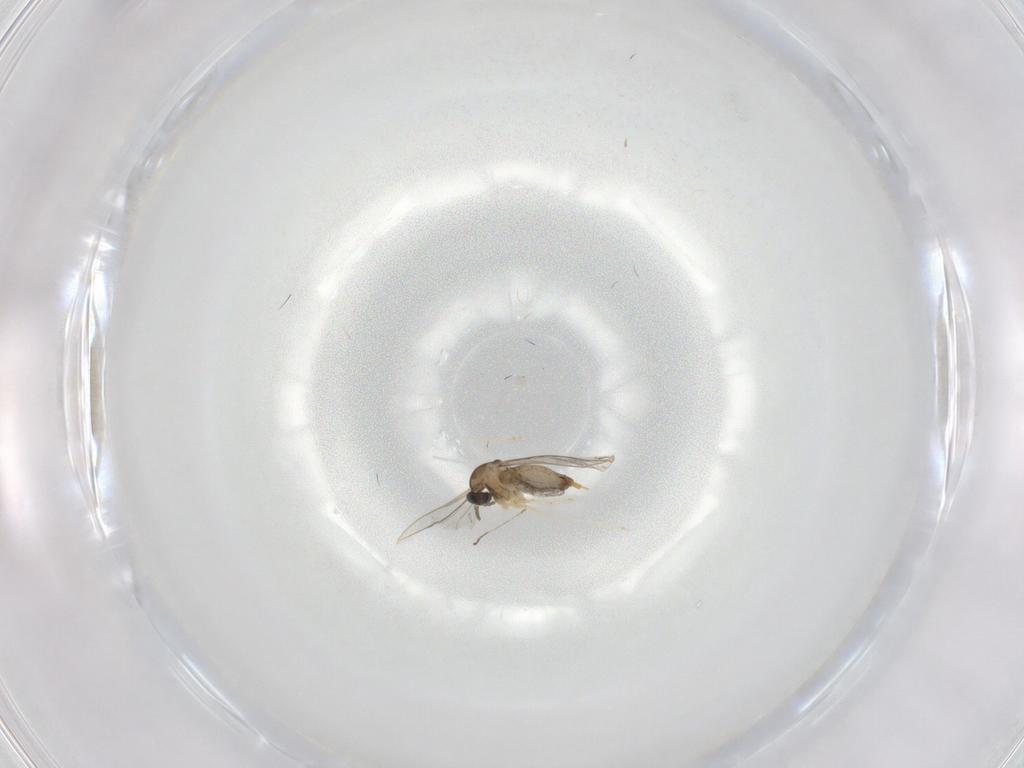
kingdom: Animalia
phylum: Arthropoda
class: Insecta
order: Diptera
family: Cecidomyiidae
